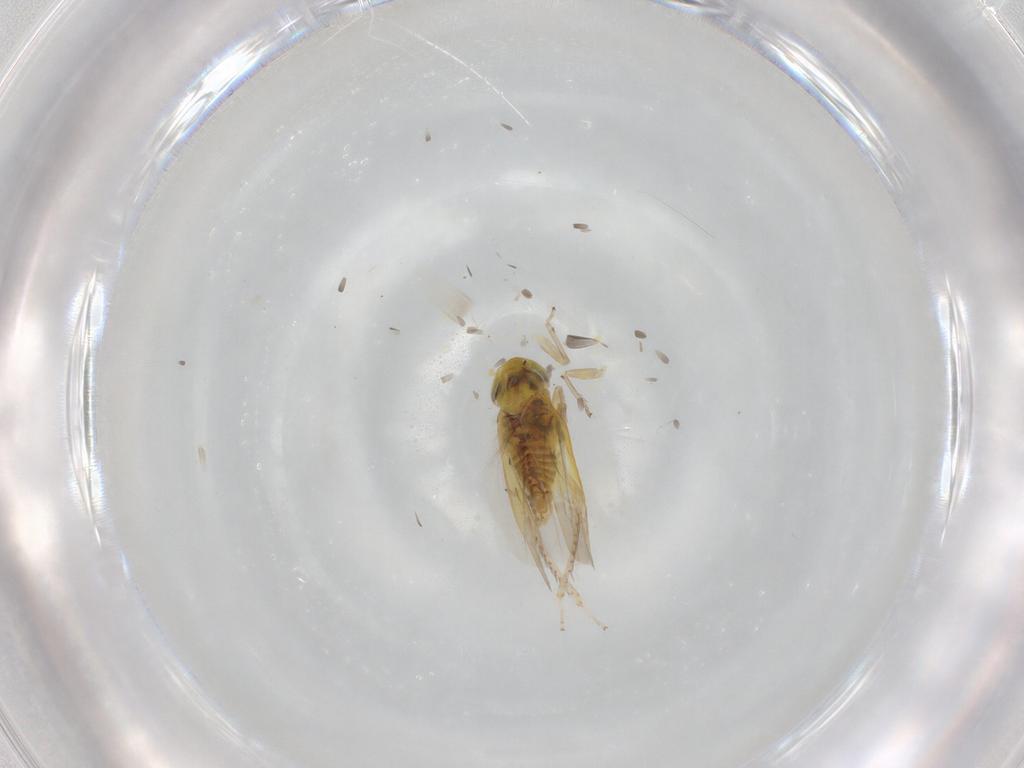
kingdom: Animalia
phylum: Arthropoda
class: Insecta
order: Hemiptera
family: Cicadellidae
